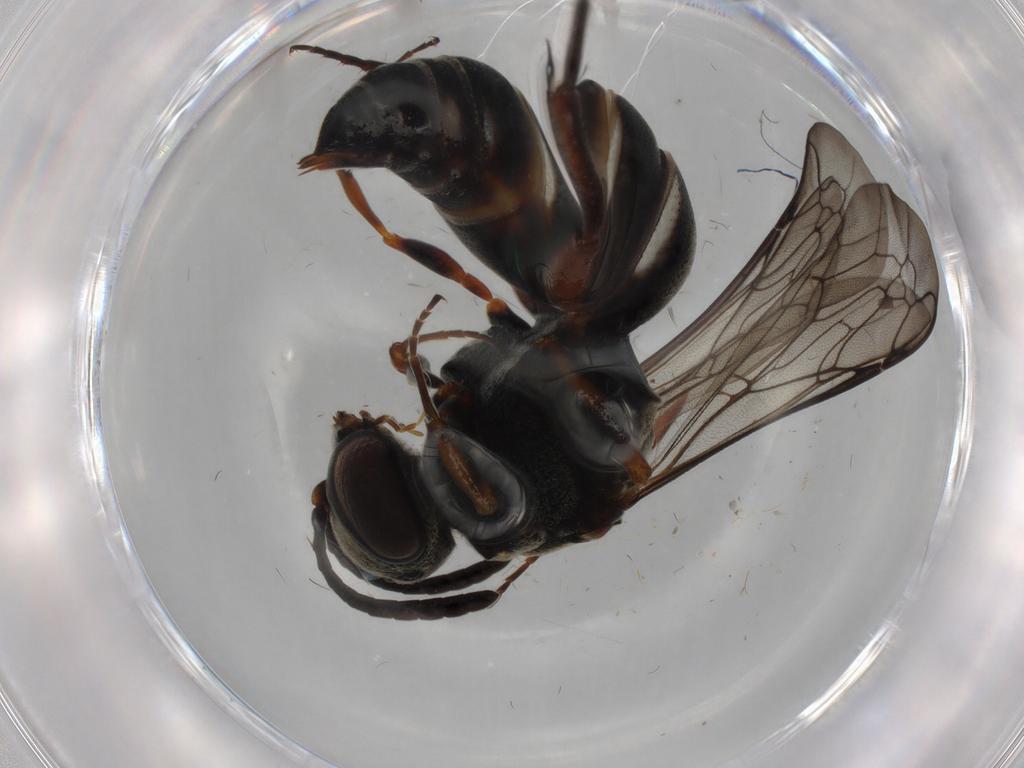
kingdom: Animalia
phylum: Arthropoda
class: Insecta
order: Hymenoptera
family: Bembicidae
